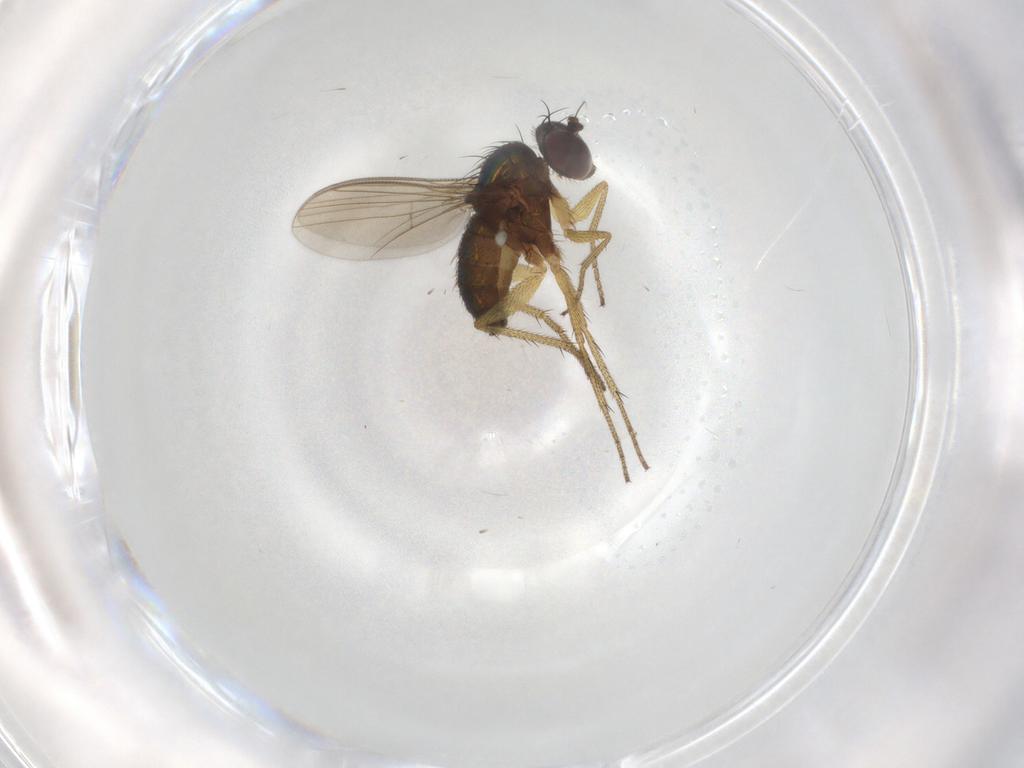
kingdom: Animalia
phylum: Arthropoda
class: Insecta
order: Diptera
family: Chironomidae
